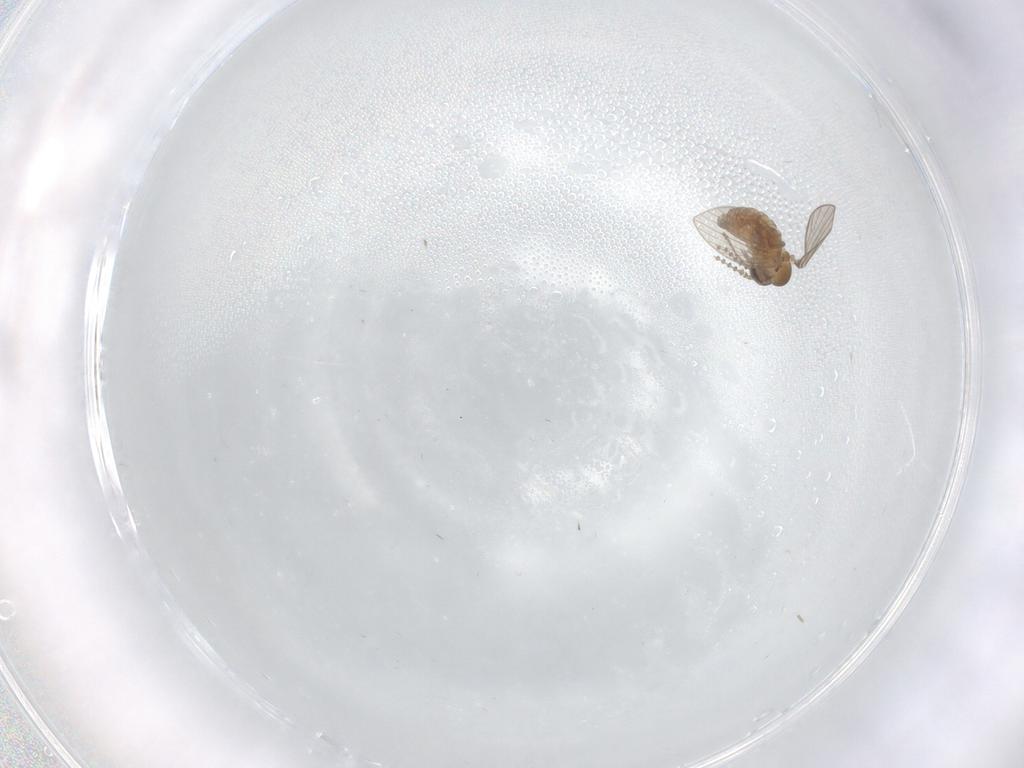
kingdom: Animalia
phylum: Arthropoda
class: Insecta
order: Diptera
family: Psychodidae
